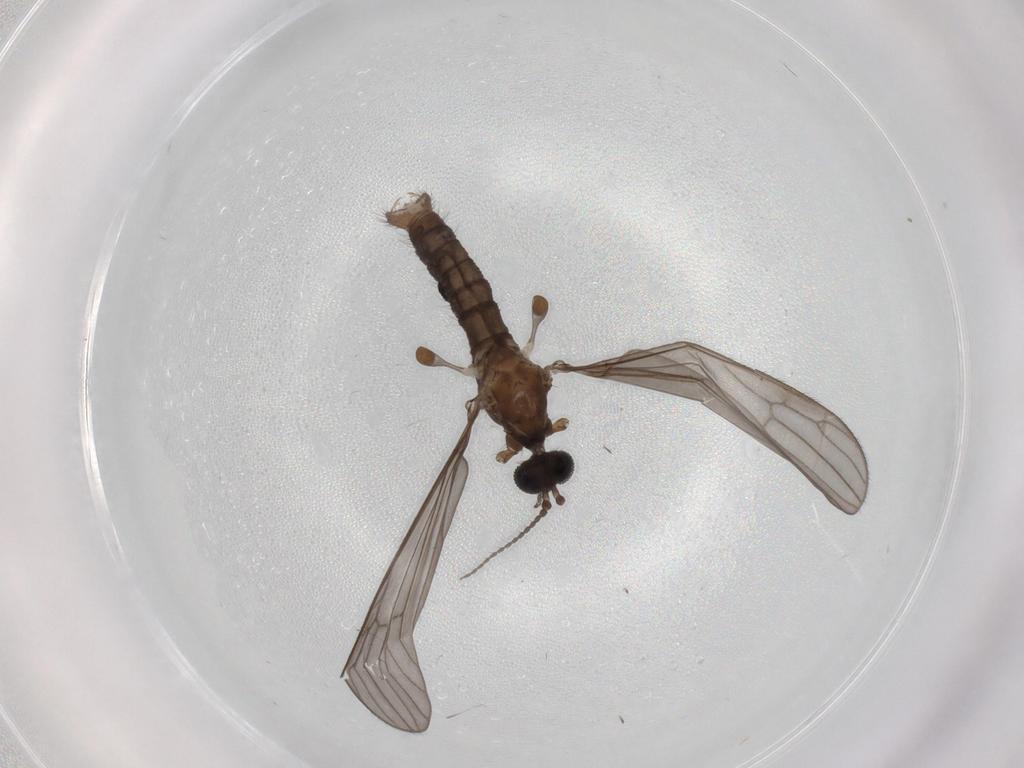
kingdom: Animalia
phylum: Arthropoda
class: Insecta
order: Diptera
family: Limoniidae
